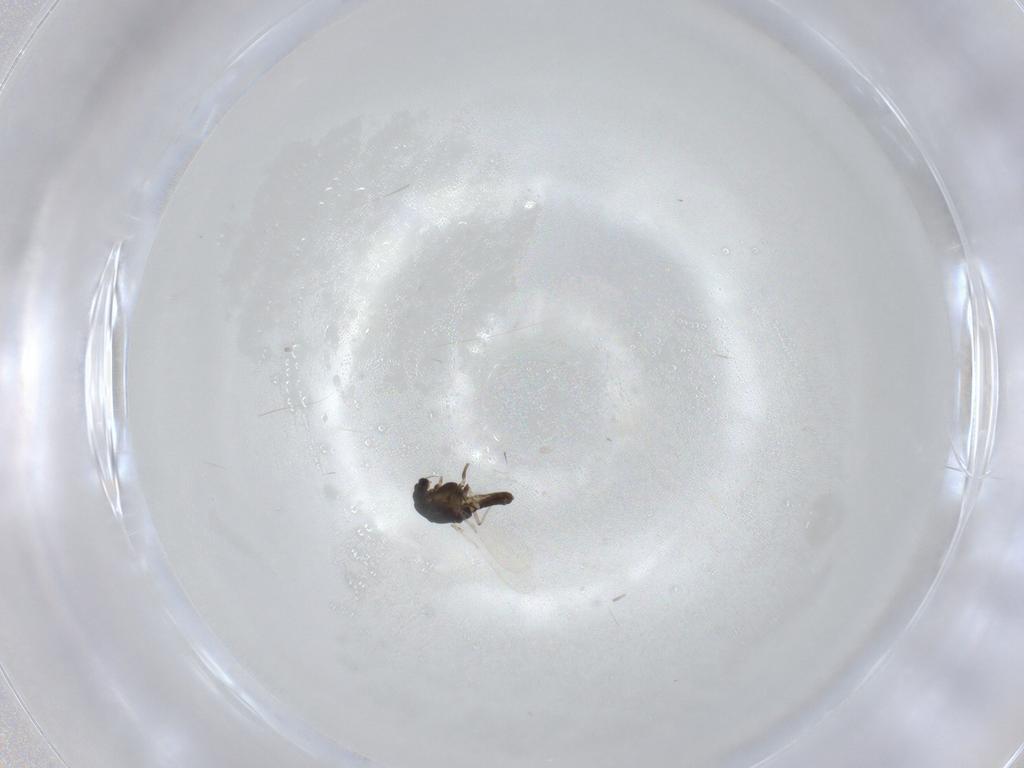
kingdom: Animalia
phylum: Arthropoda
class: Insecta
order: Diptera
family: Chironomidae
